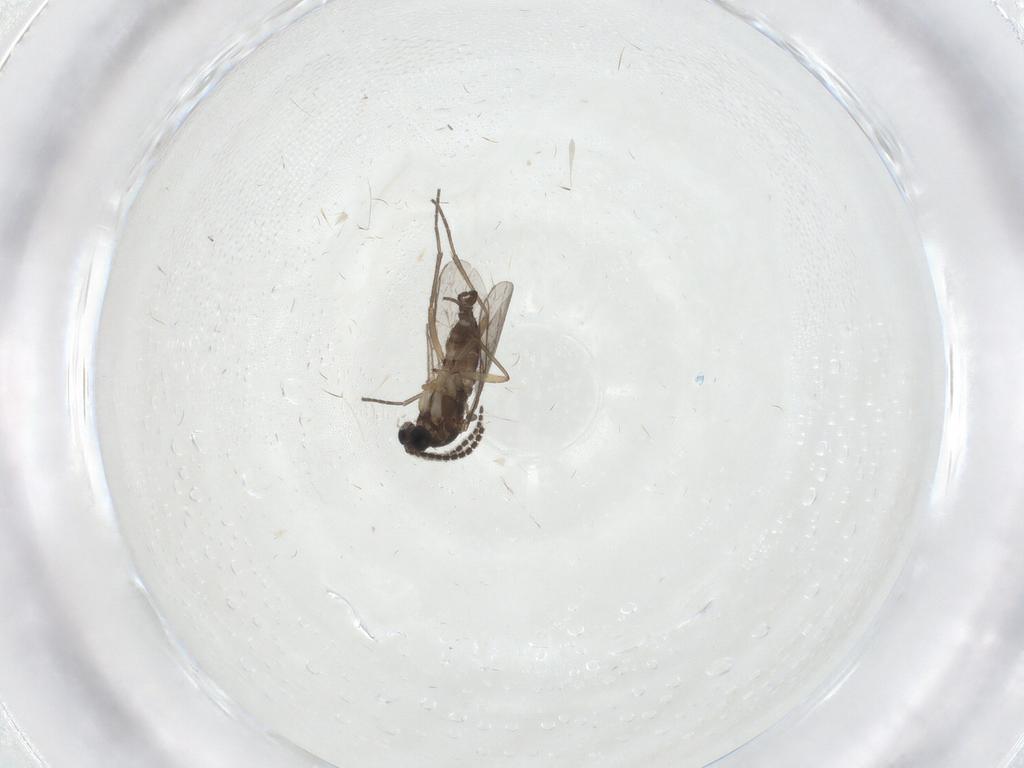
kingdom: Animalia
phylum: Arthropoda
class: Insecta
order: Diptera
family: Sciaridae
